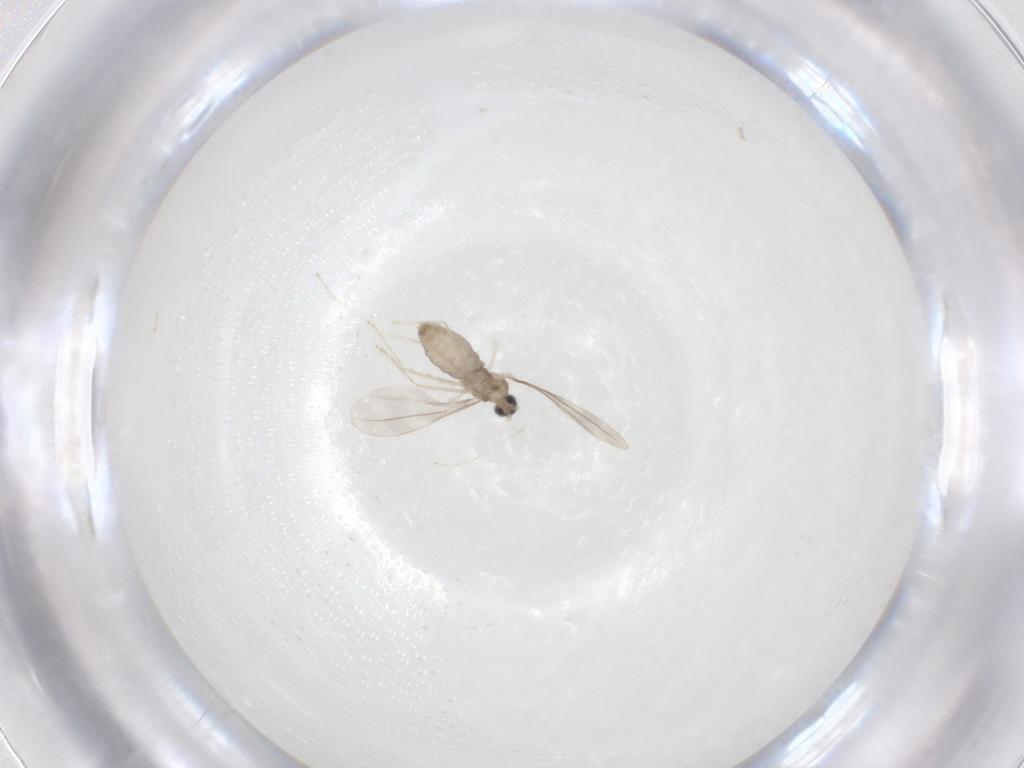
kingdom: Animalia
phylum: Arthropoda
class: Insecta
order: Diptera
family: Cecidomyiidae
